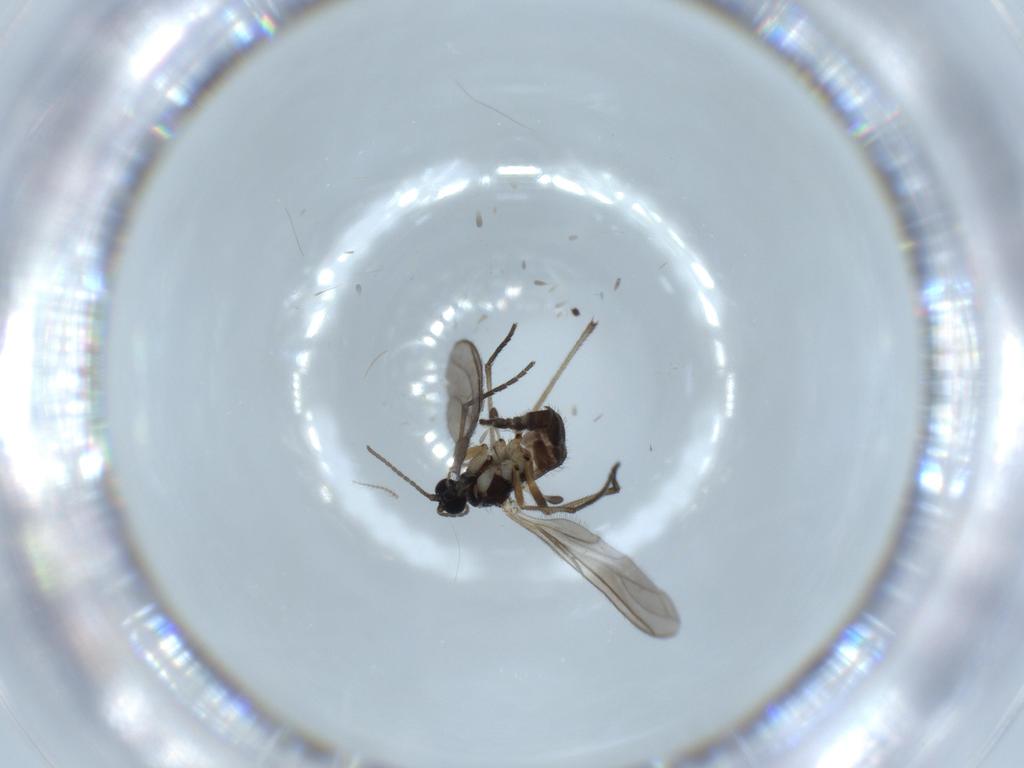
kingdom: Animalia
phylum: Arthropoda
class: Insecta
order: Diptera
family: Sciaridae
